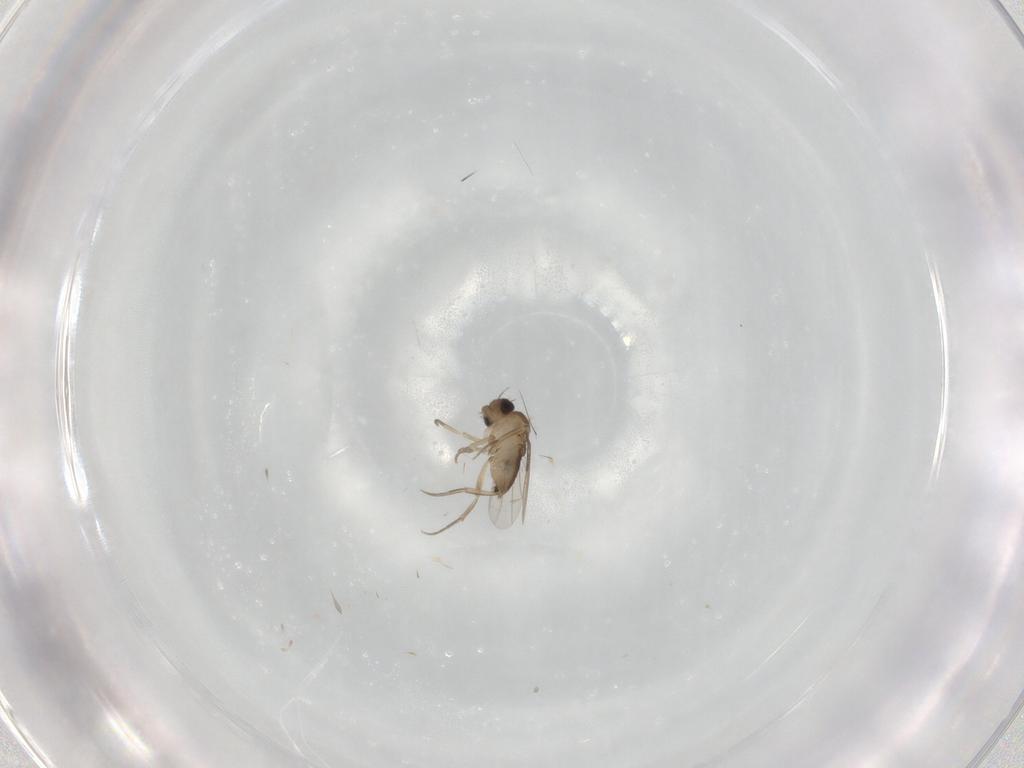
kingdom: Animalia
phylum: Arthropoda
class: Insecta
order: Diptera
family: Phoridae
